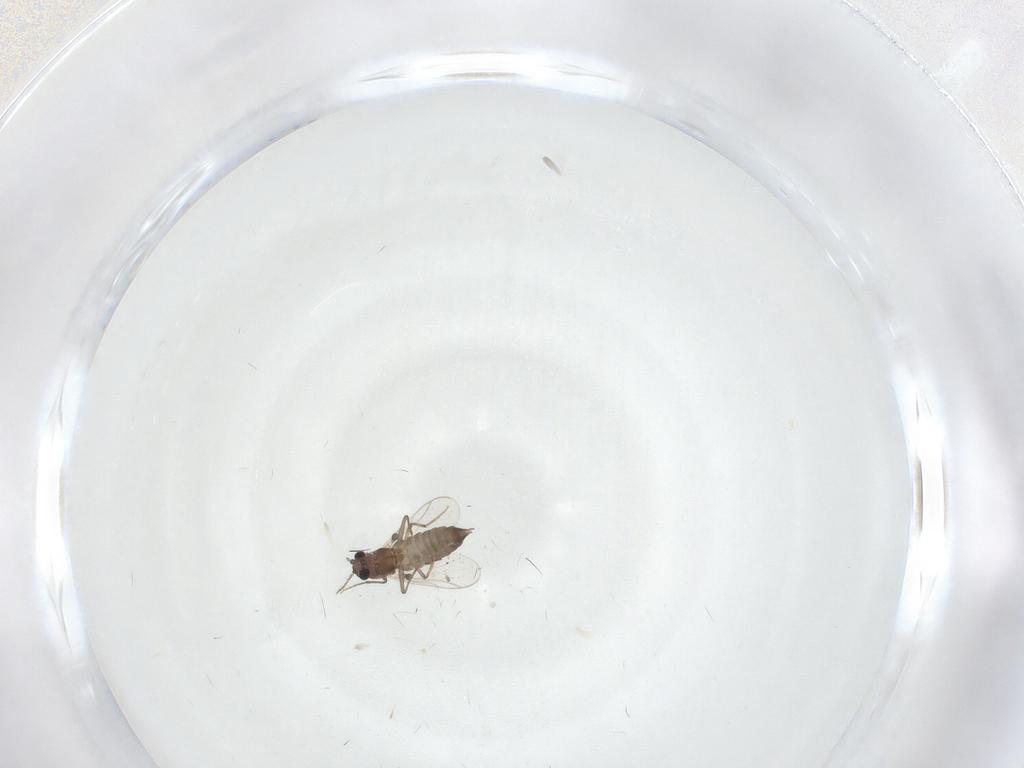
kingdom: Animalia
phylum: Arthropoda
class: Insecta
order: Diptera
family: Chironomidae
